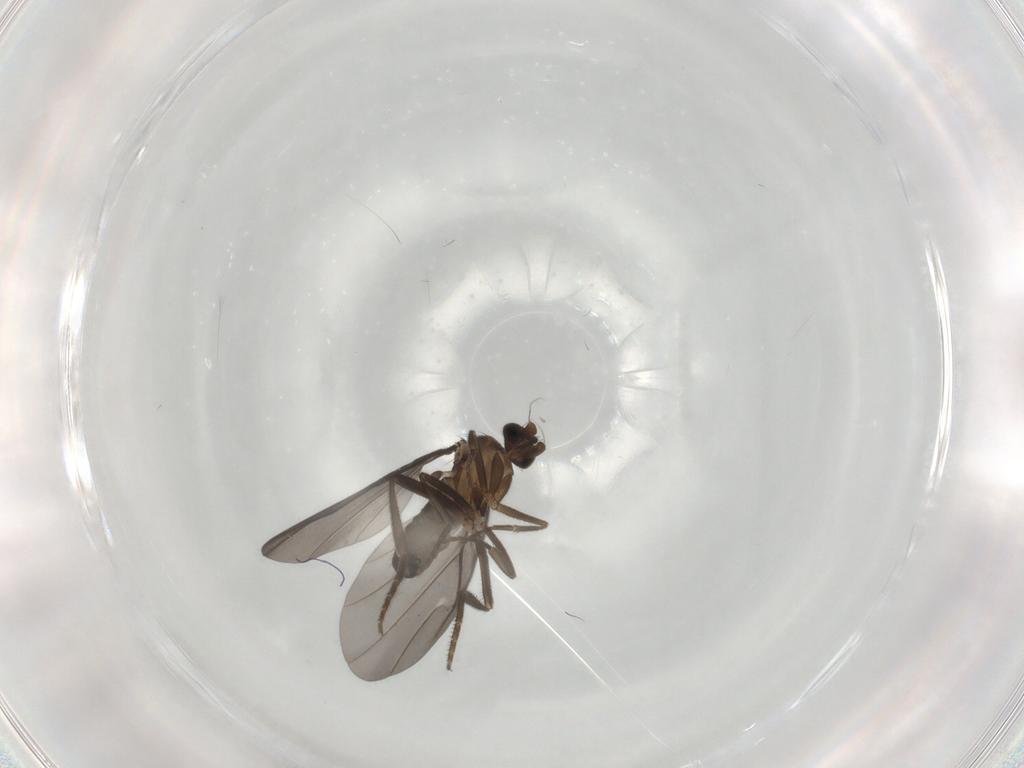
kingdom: Animalia
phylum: Arthropoda
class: Insecta
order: Diptera
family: Phoridae
